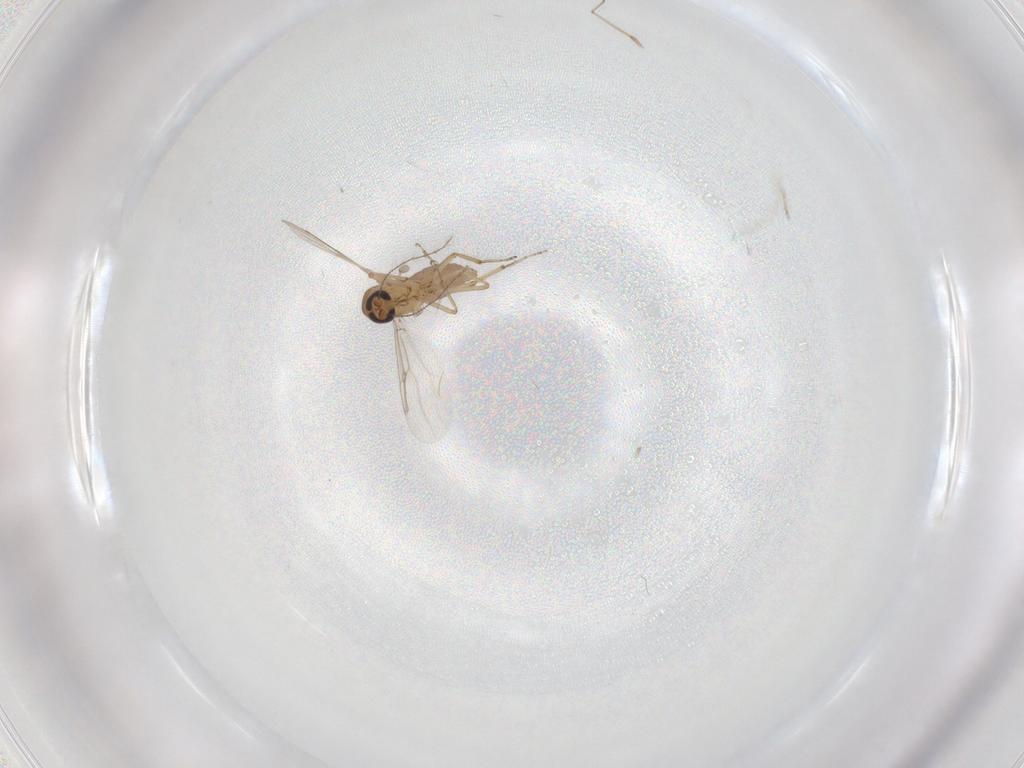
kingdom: Animalia
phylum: Arthropoda
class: Insecta
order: Diptera
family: Ceratopogonidae
